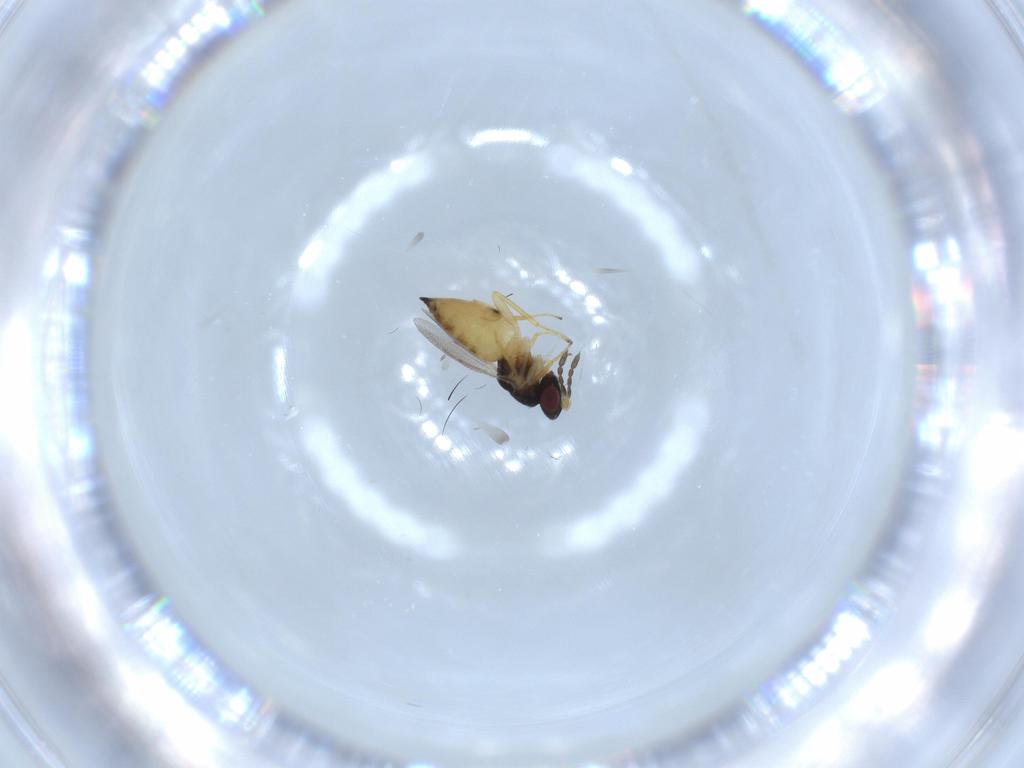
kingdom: Animalia
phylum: Arthropoda
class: Insecta
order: Hymenoptera
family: Eulophidae
